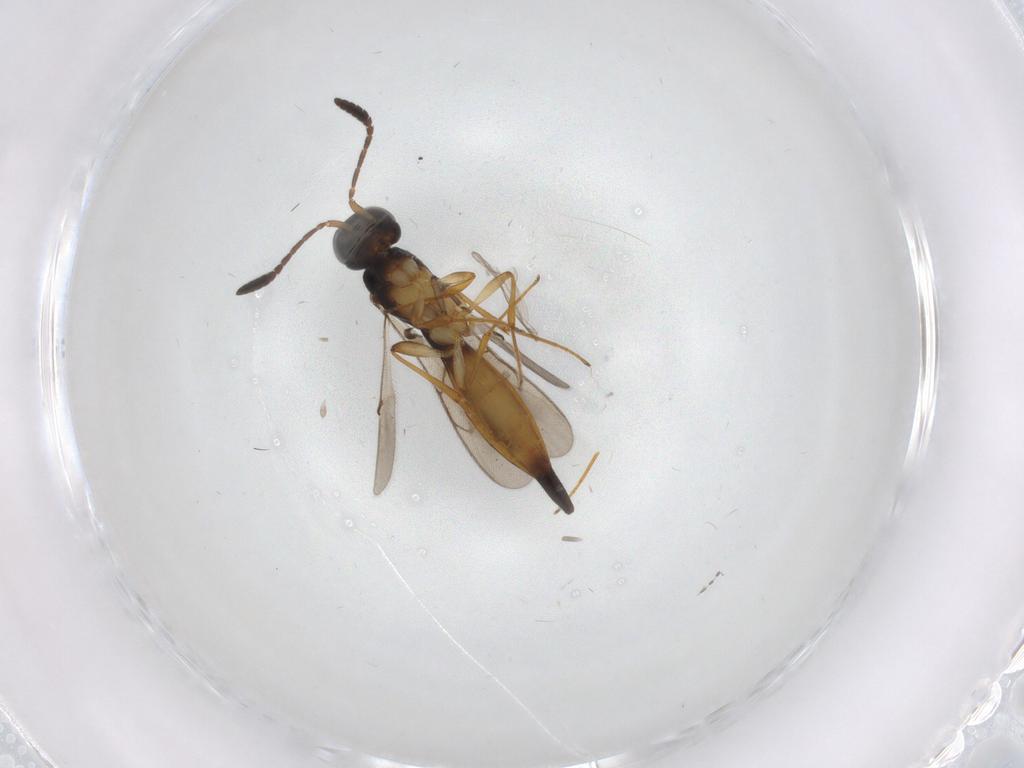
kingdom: Animalia
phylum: Arthropoda
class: Insecta
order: Hymenoptera
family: Scelionidae
